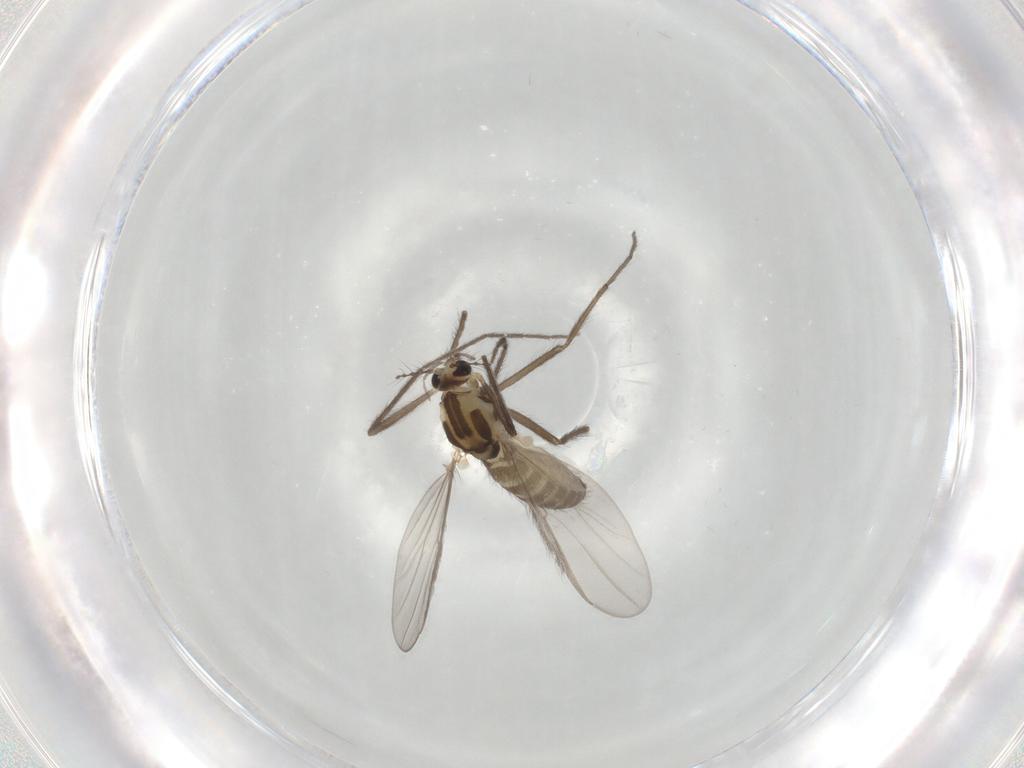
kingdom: Animalia
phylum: Arthropoda
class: Insecta
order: Diptera
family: Chironomidae
